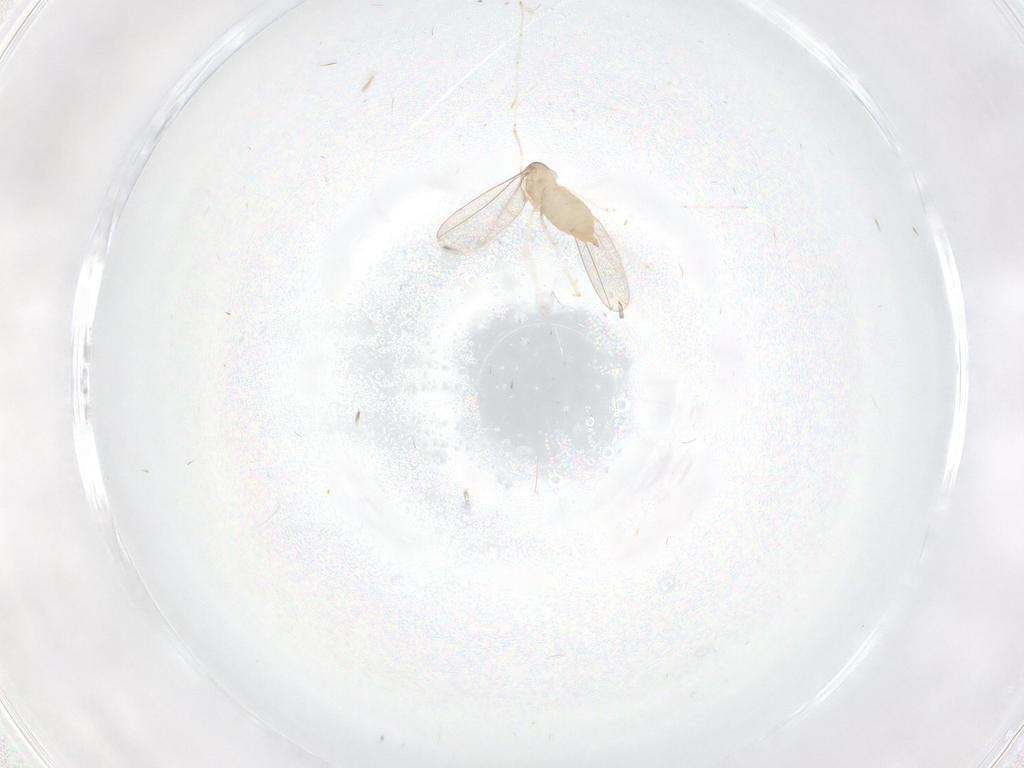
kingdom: Animalia
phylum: Arthropoda
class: Insecta
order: Diptera
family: Cecidomyiidae
